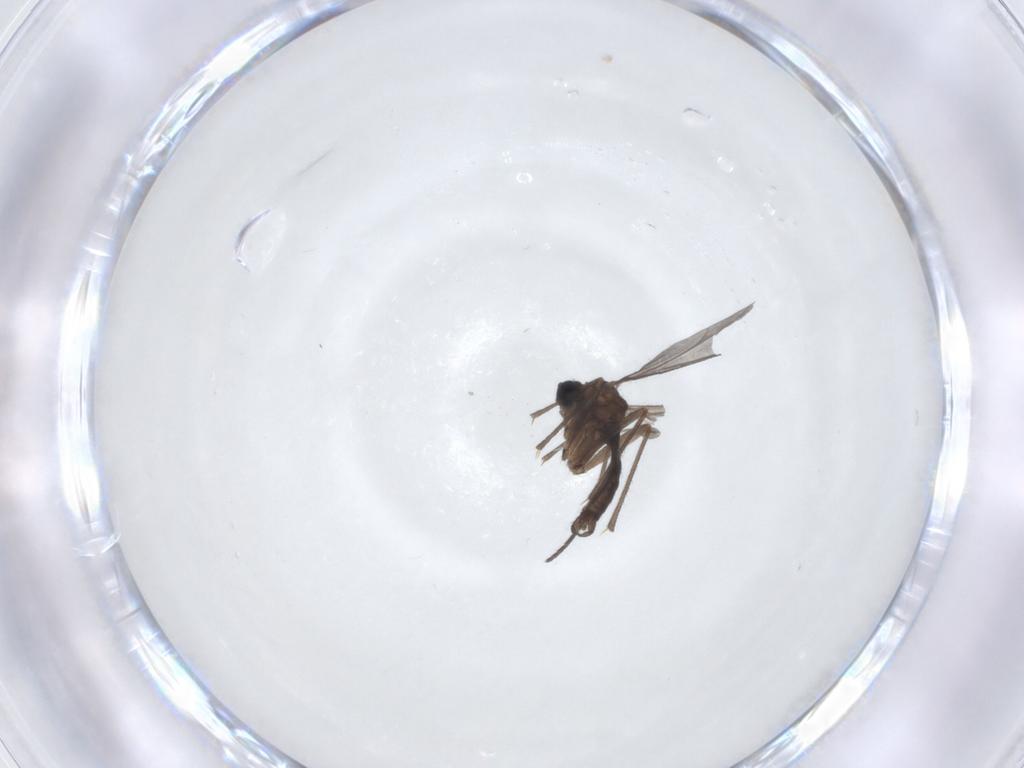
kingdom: Animalia
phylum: Arthropoda
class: Insecta
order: Diptera
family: Sciaridae
